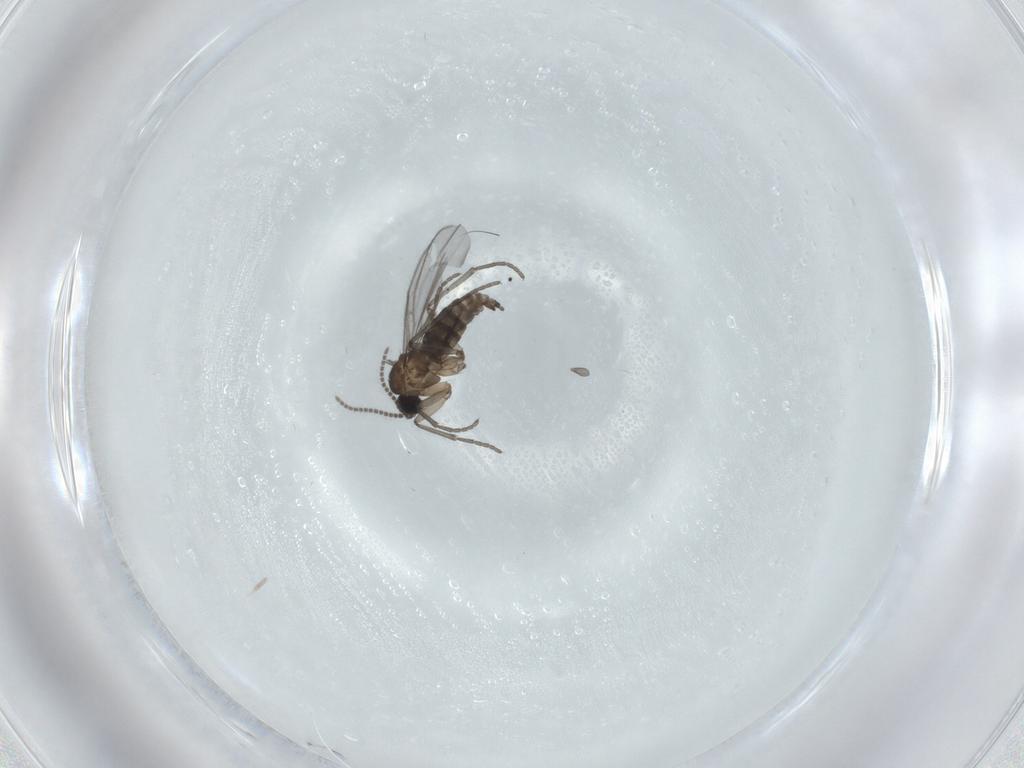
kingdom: Animalia
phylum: Arthropoda
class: Insecta
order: Diptera
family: Sciaridae
